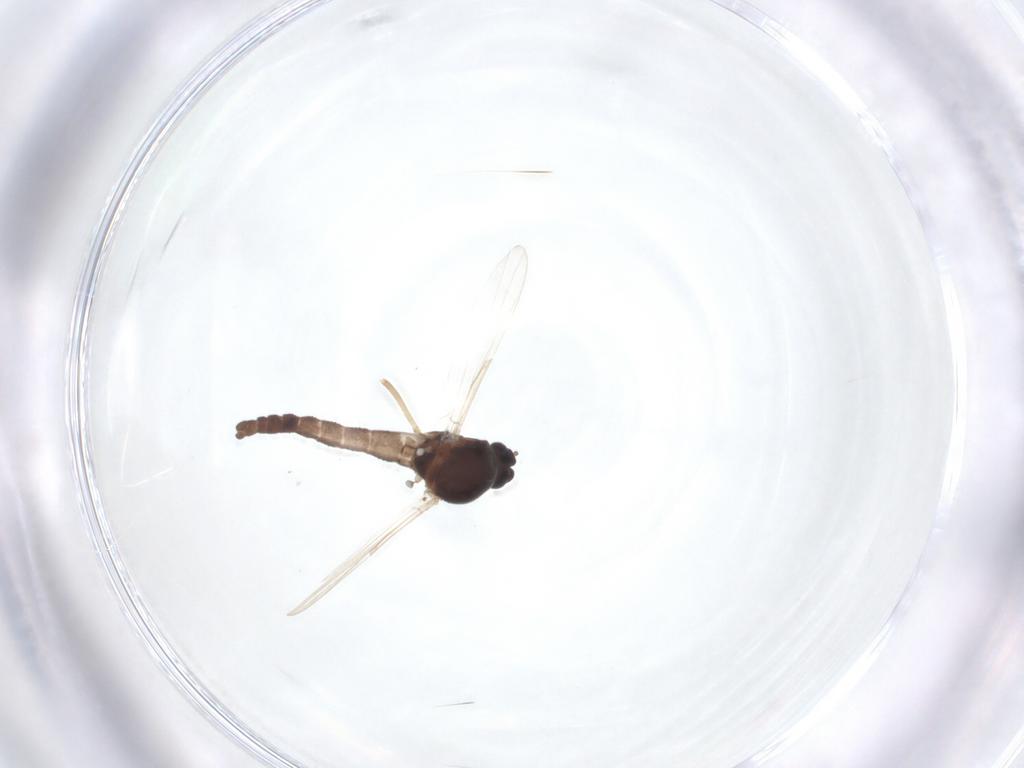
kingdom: Animalia
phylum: Arthropoda
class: Insecta
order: Diptera
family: Ceratopogonidae
